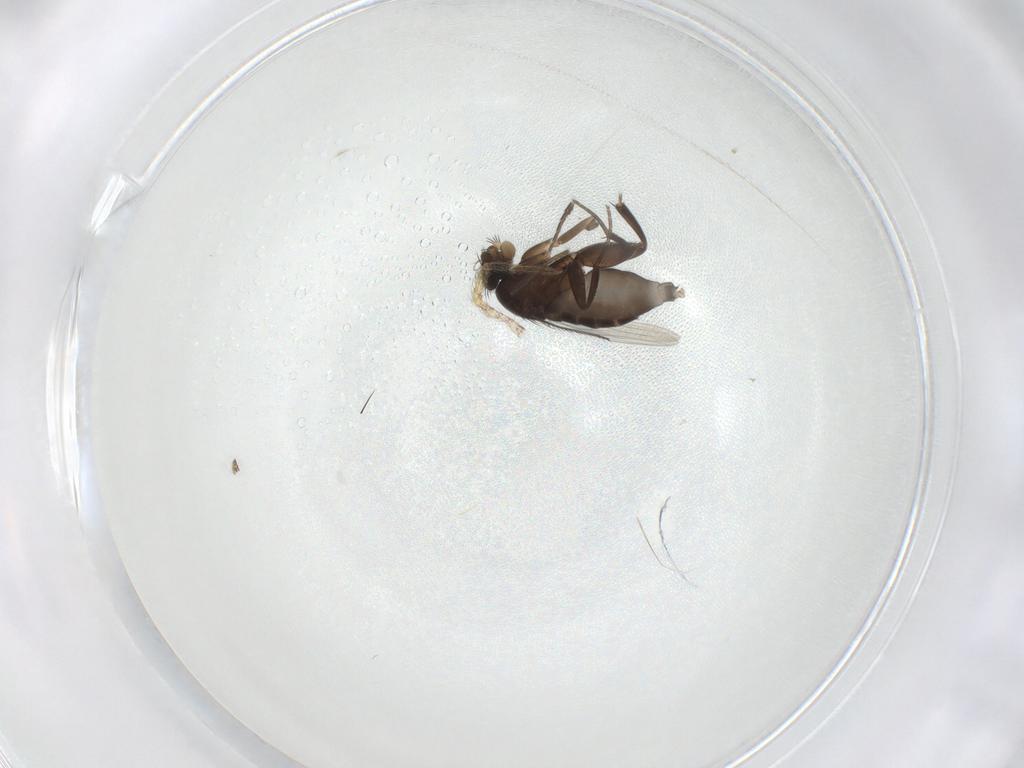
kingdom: Animalia
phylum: Arthropoda
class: Insecta
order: Diptera
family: Phoridae
